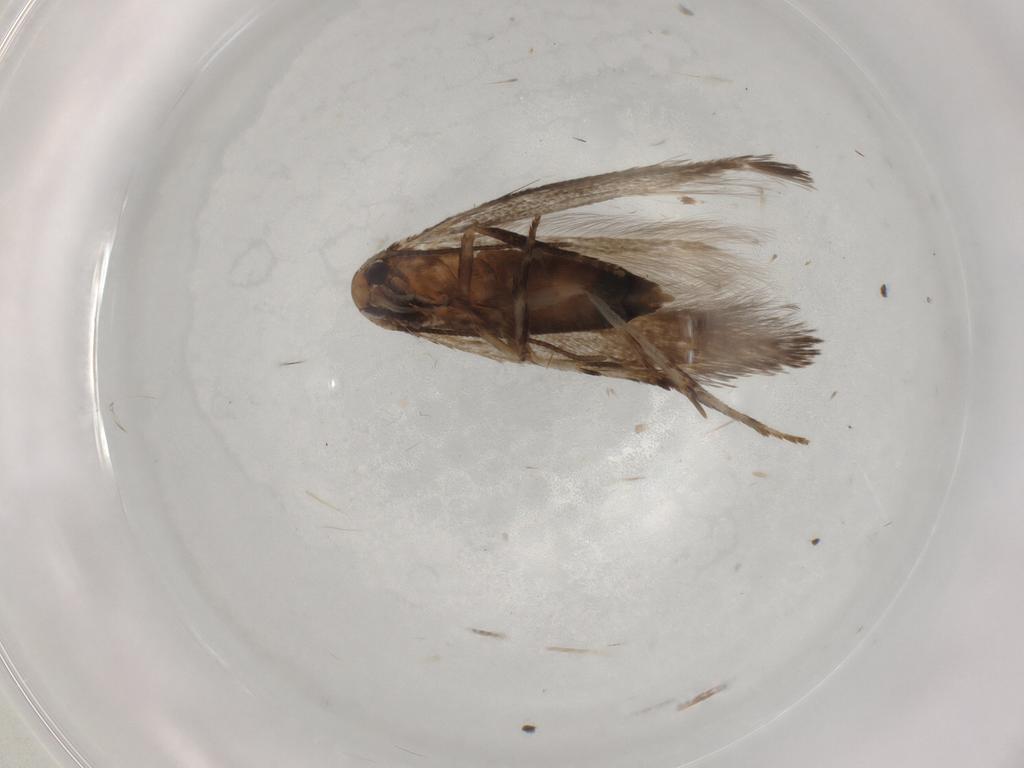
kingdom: Animalia
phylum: Arthropoda
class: Insecta
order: Lepidoptera
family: Cosmopterigidae
